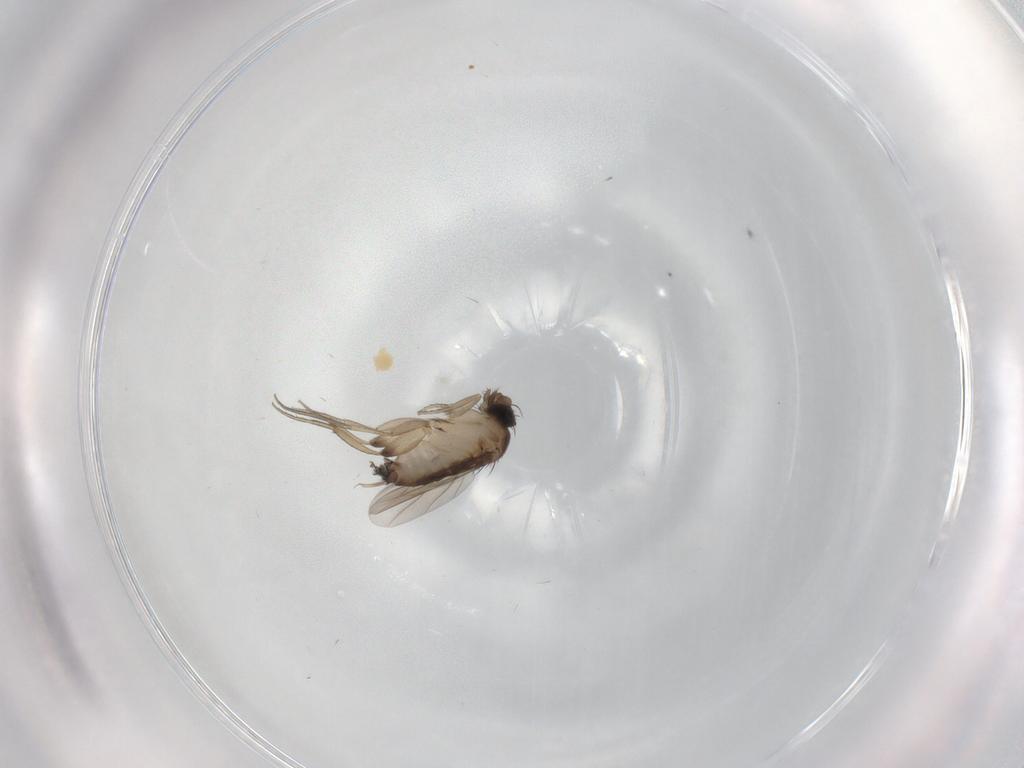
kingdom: Animalia
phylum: Arthropoda
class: Insecta
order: Diptera
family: Phoridae
